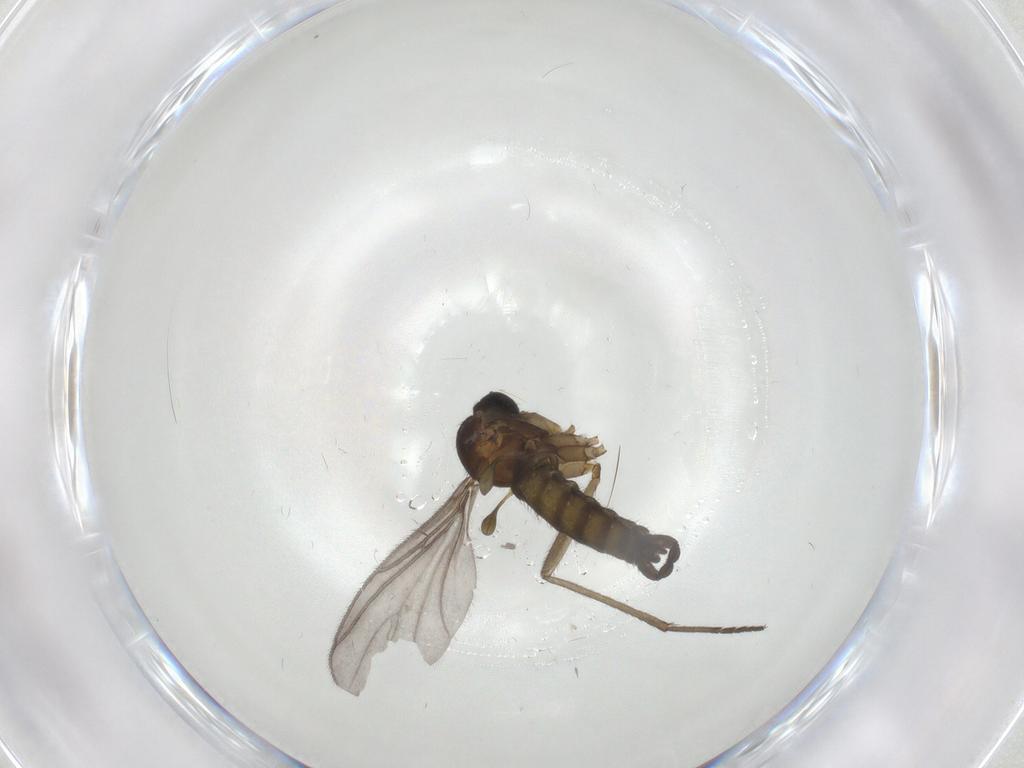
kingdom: Animalia
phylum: Arthropoda
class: Insecta
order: Diptera
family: Sciaridae
